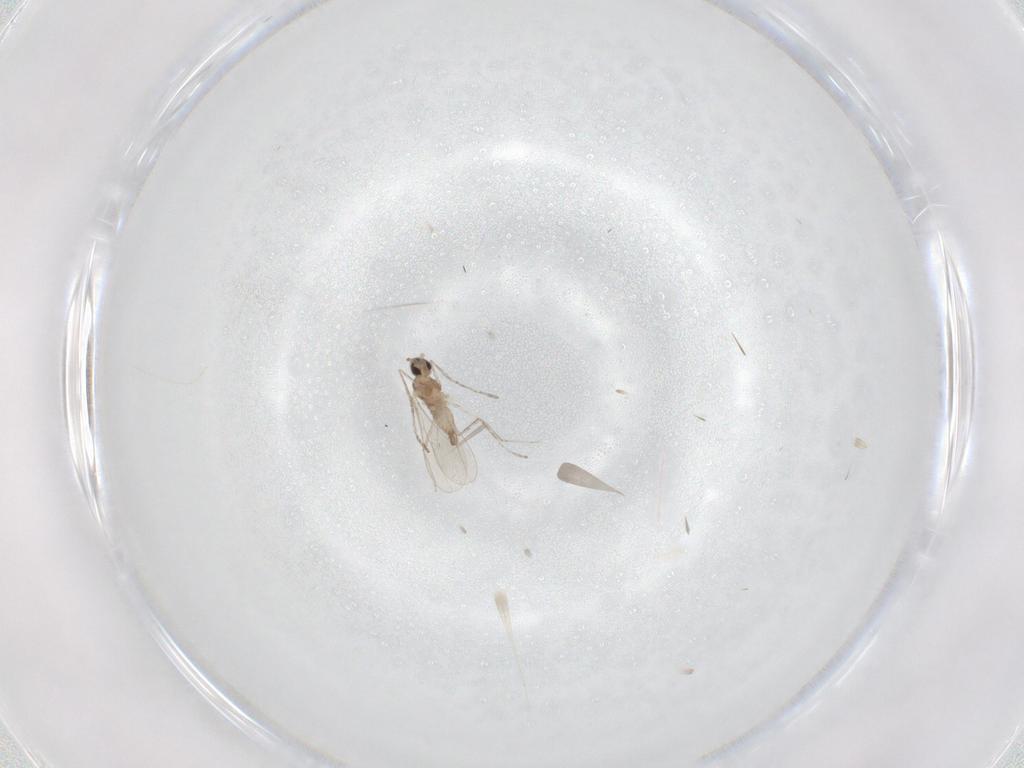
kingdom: Animalia
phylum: Arthropoda
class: Insecta
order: Diptera
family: Cecidomyiidae
